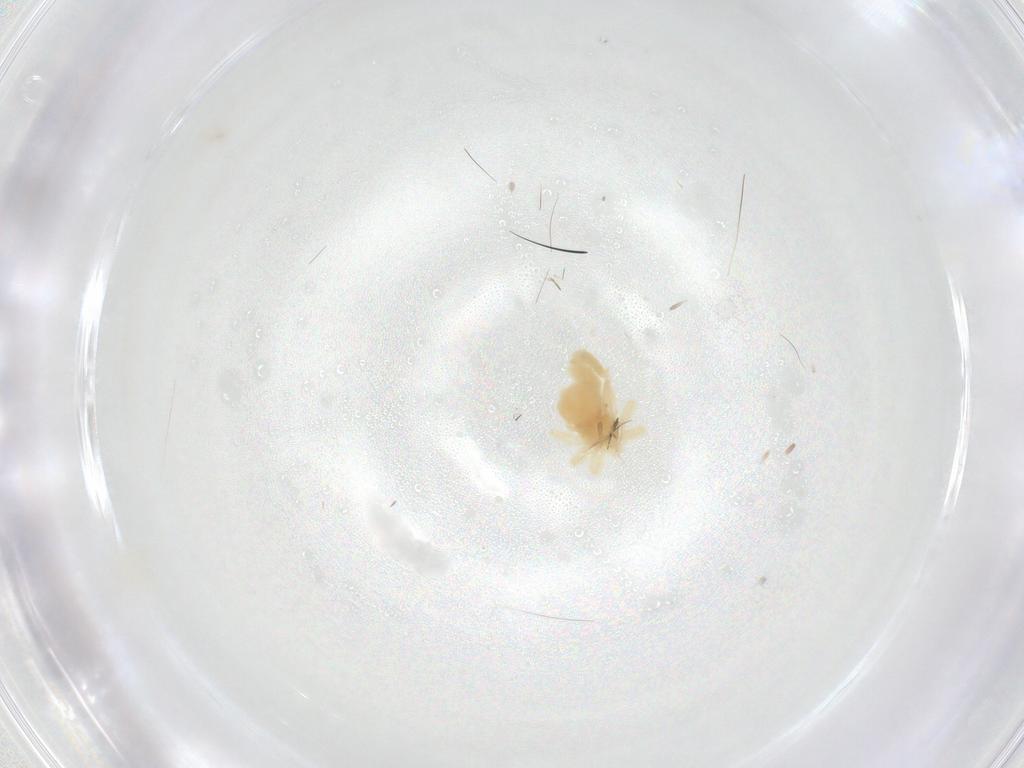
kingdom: Animalia
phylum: Arthropoda
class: Arachnida
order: Trombidiformes
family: Anystidae
